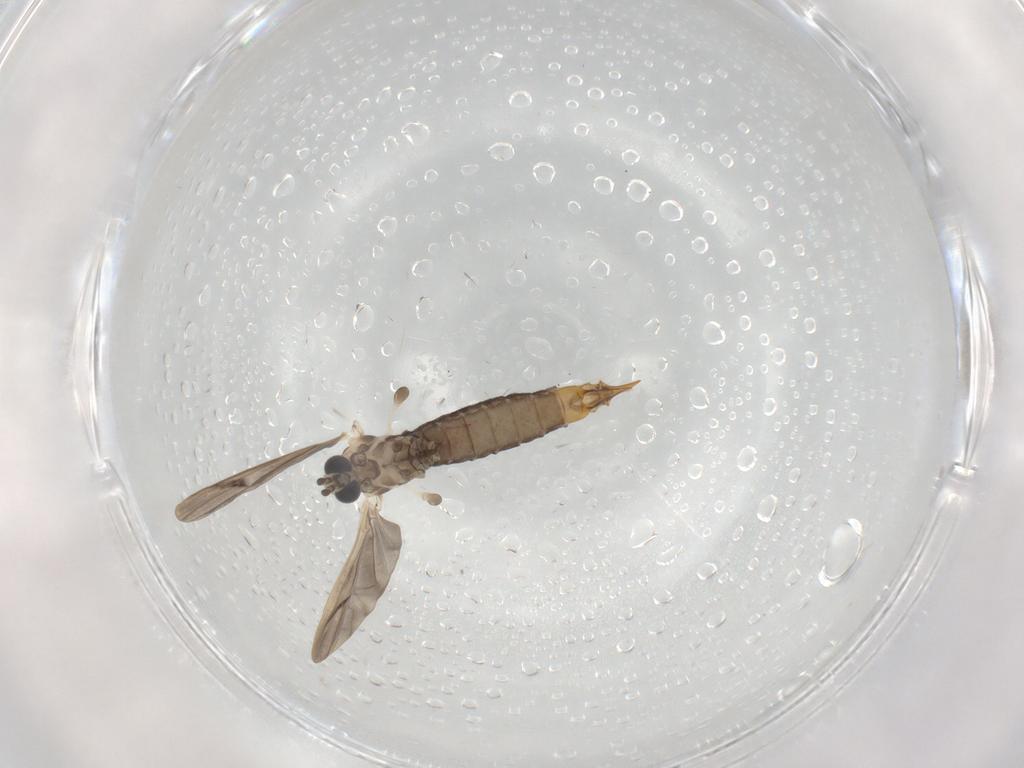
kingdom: Animalia
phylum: Arthropoda
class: Insecta
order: Diptera
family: Limoniidae
